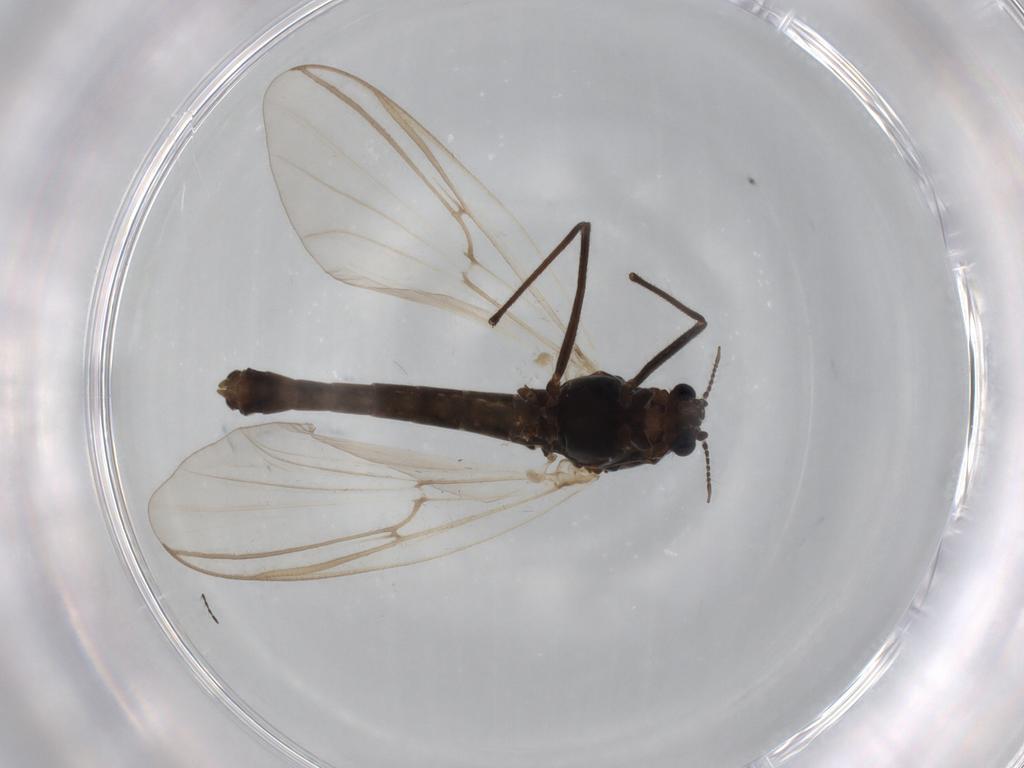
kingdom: Animalia
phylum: Arthropoda
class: Insecta
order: Diptera
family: Chironomidae
